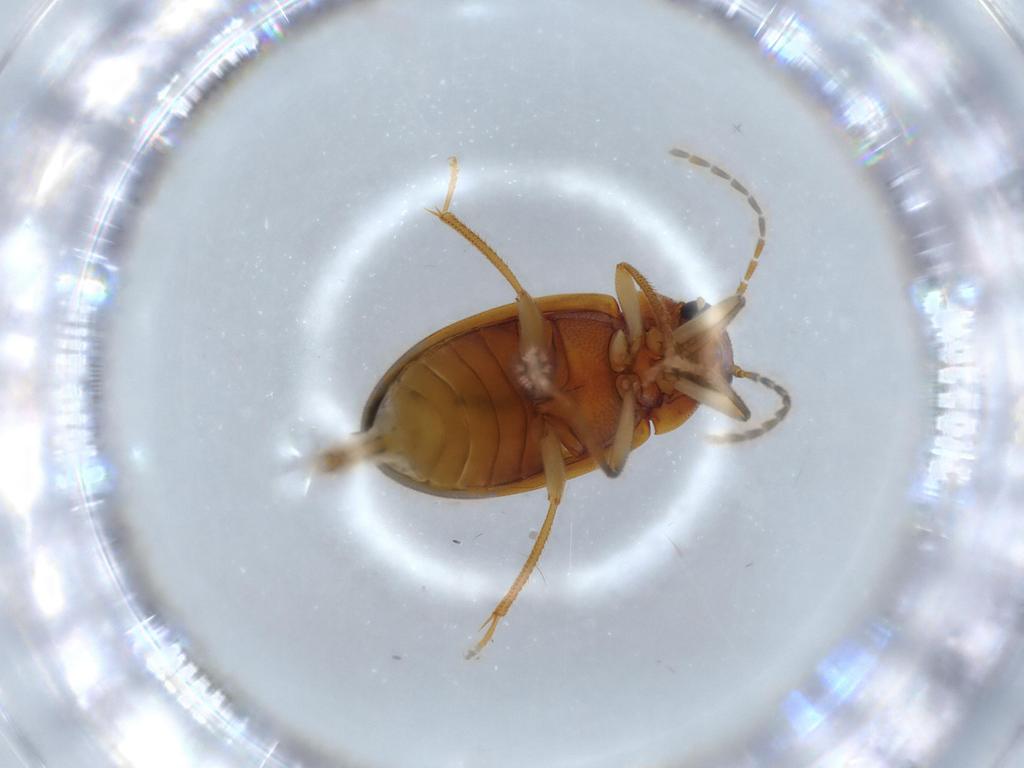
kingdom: Animalia
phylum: Arthropoda
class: Insecta
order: Coleoptera
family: Ptilodactylidae
